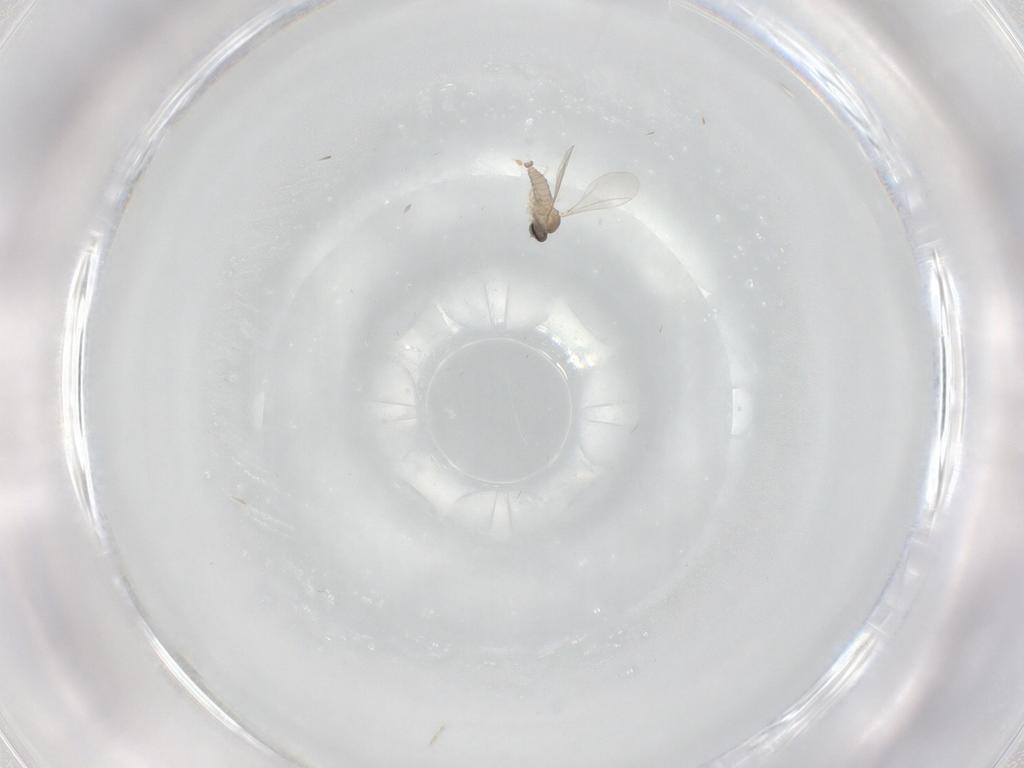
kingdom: Animalia
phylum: Arthropoda
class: Insecta
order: Diptera
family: Cecidomyiidae
